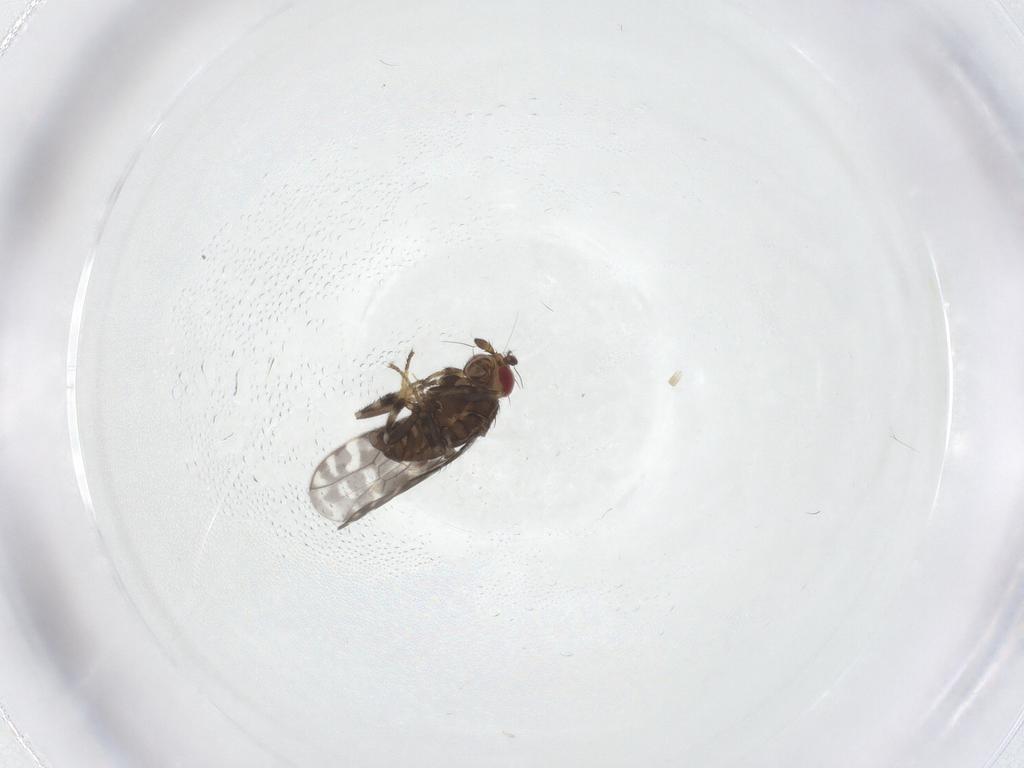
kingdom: Animalia
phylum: Arthropoda
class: Insecta
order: Diptera
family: Sphaeroceridae
